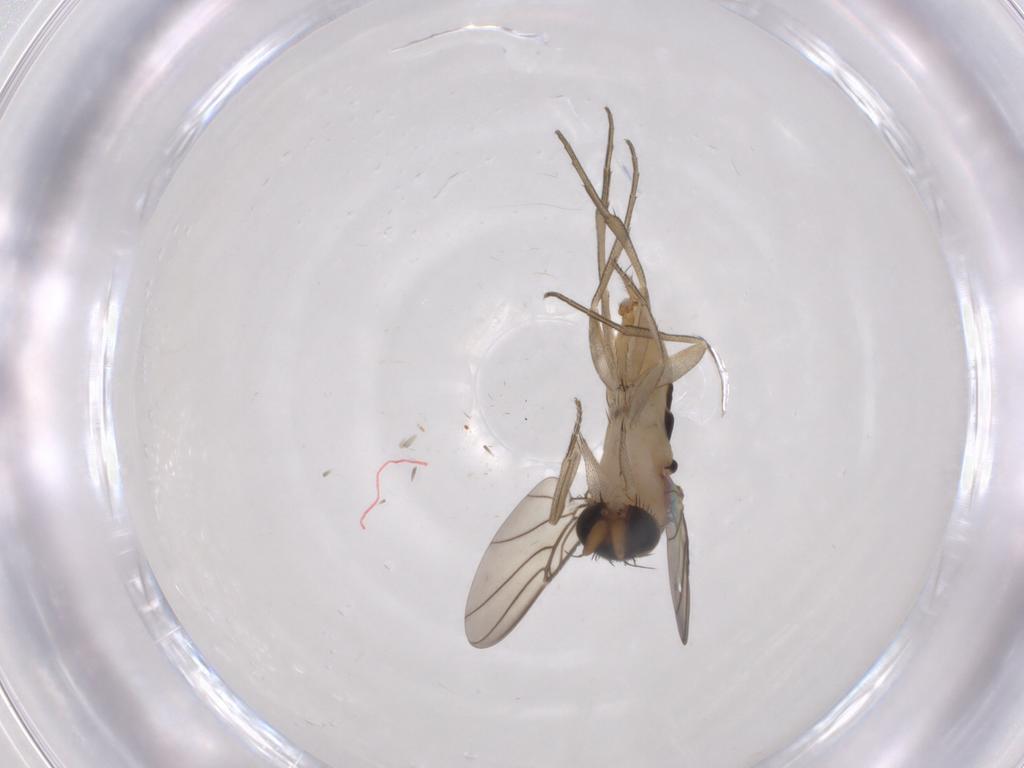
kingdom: Animalia
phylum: Arthropoda
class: Insecta
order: Diptera
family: Phoridae
